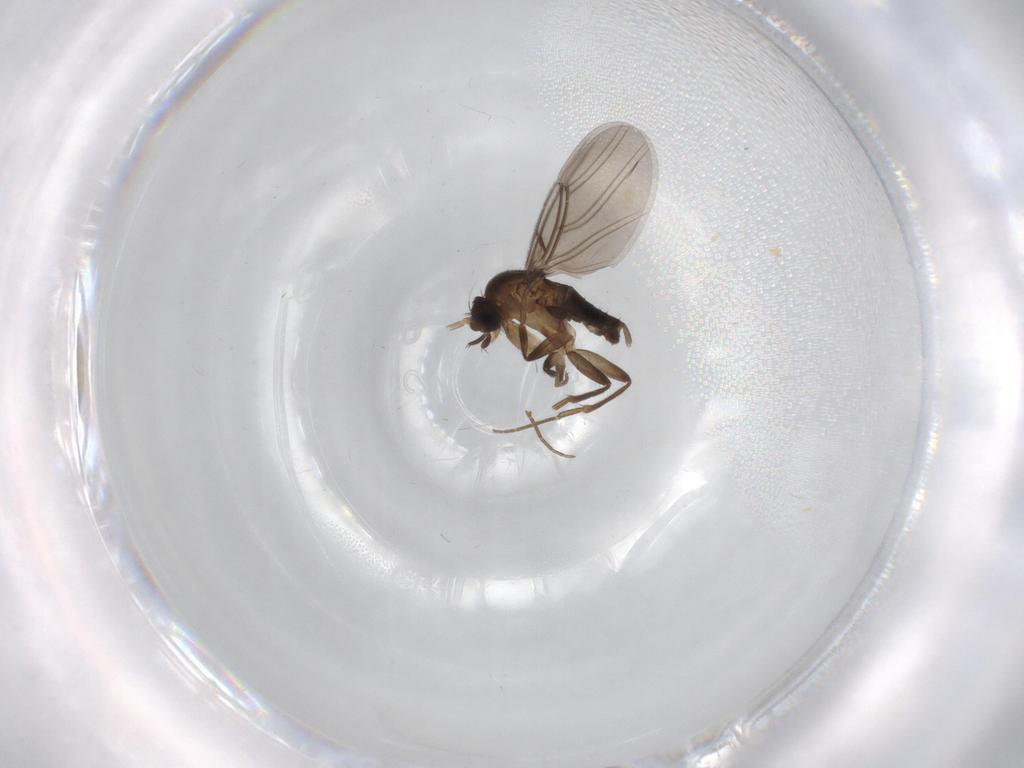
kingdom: Animalia
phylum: Arthropoda
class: Insecta
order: Diptera
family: Phoridae
